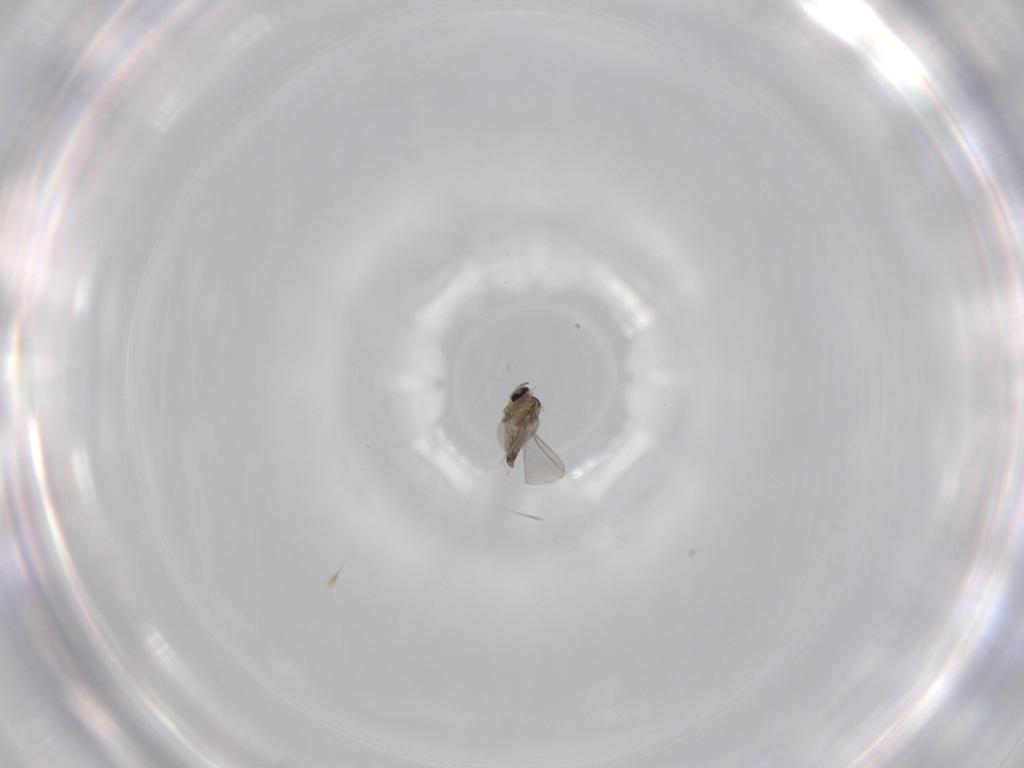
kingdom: Animalia
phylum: Arthropoda
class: Insecta
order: Diptera
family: Cecidomyiidae
